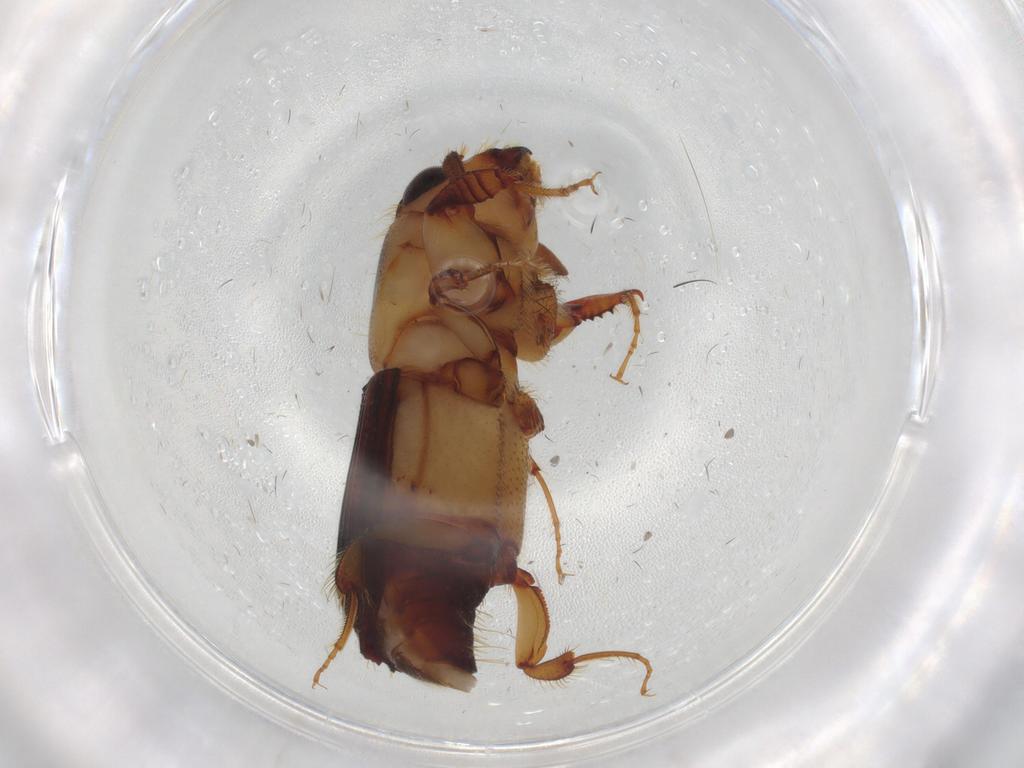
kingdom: Animalia
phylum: Arthropoda
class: Insecta
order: Coleoptera
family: Curculionidae
